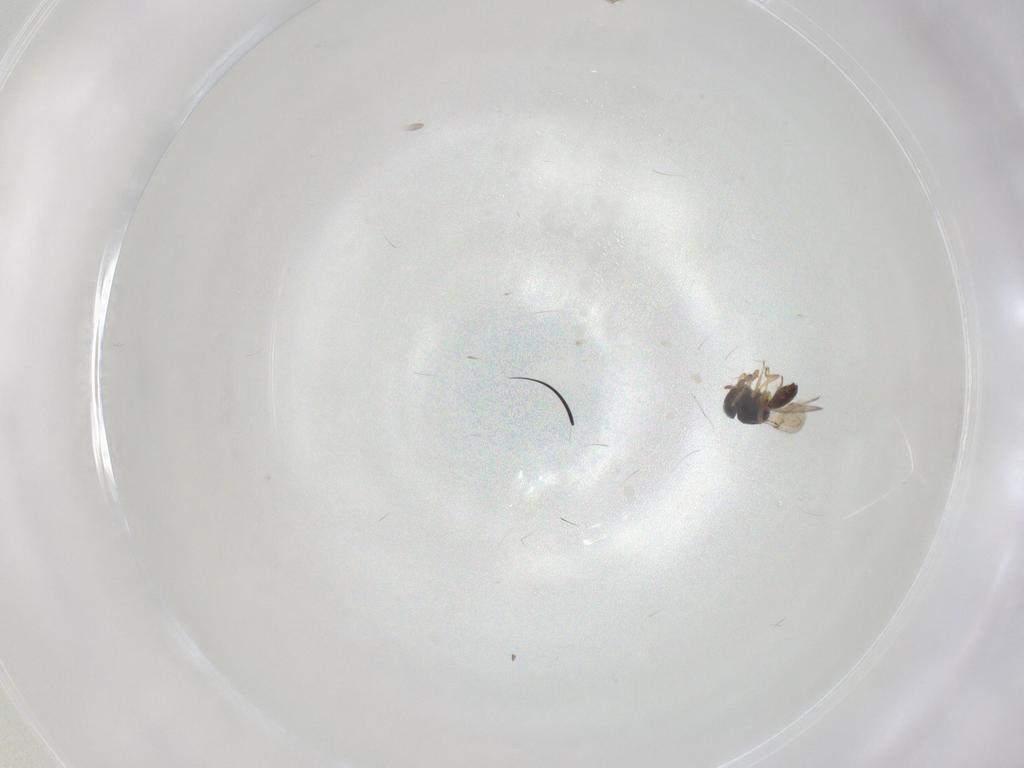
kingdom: Animalia
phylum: Arthropoda
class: Insecta
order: Hymenoptera
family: Scelionidae
